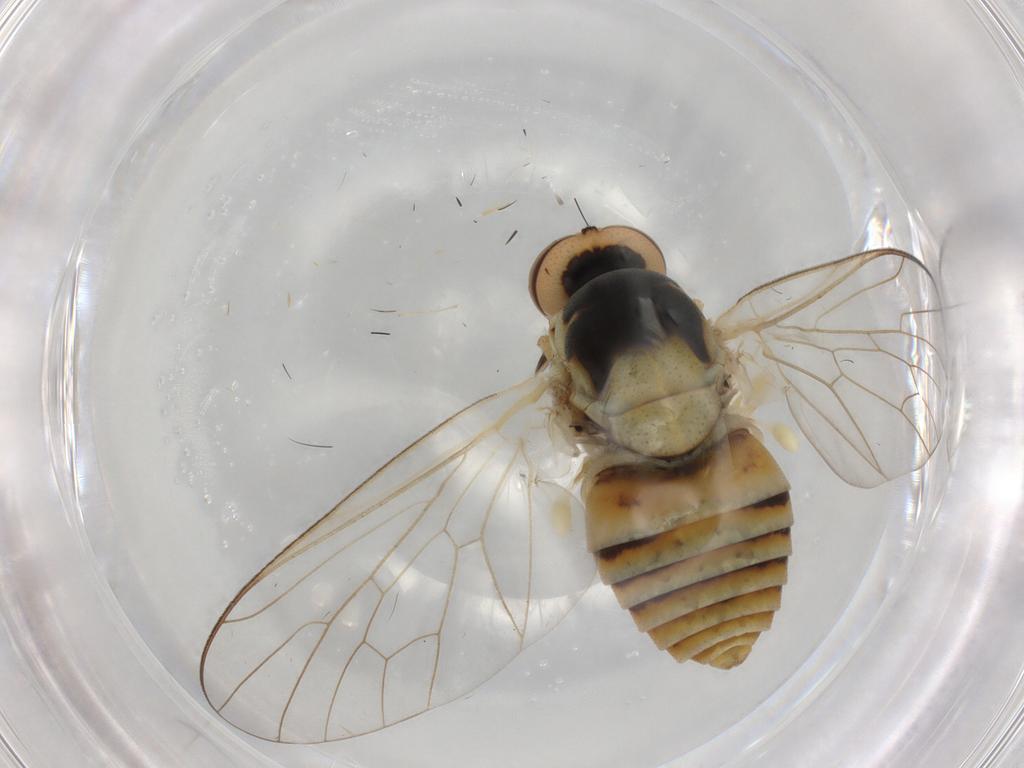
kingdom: Animalia
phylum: Arthropoda
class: Insecta
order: Diptera
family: Bombyliidae
